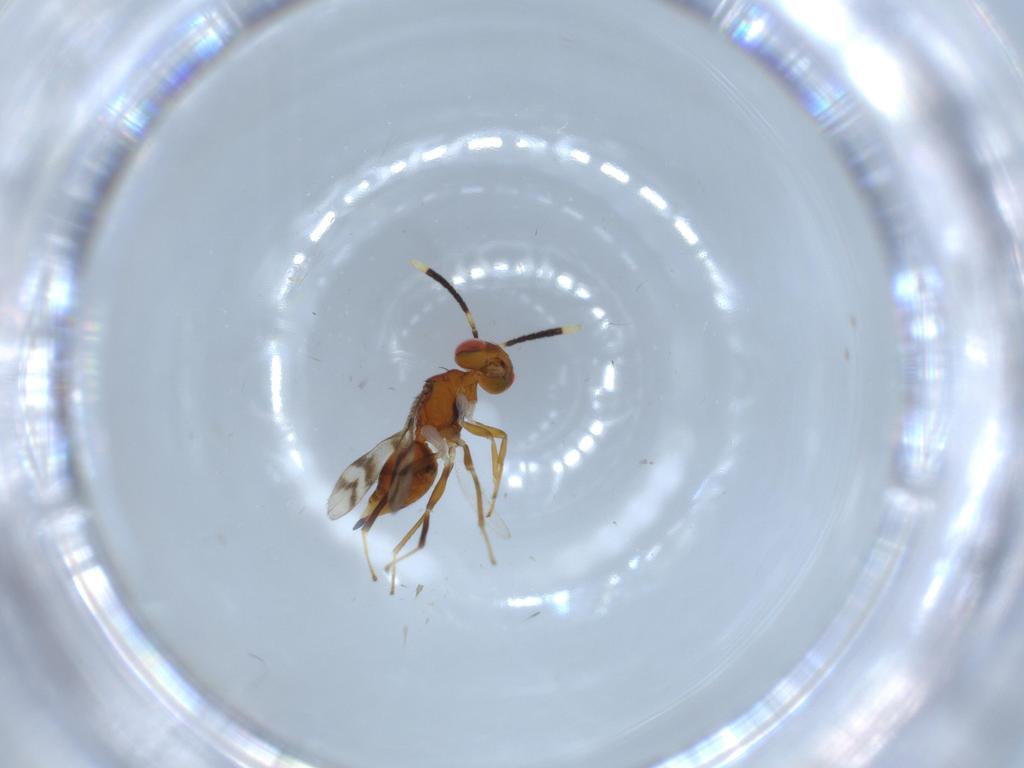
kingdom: Animalia
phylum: Arthropoda
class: Insecta
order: Hymenoptera
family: Diparidae
